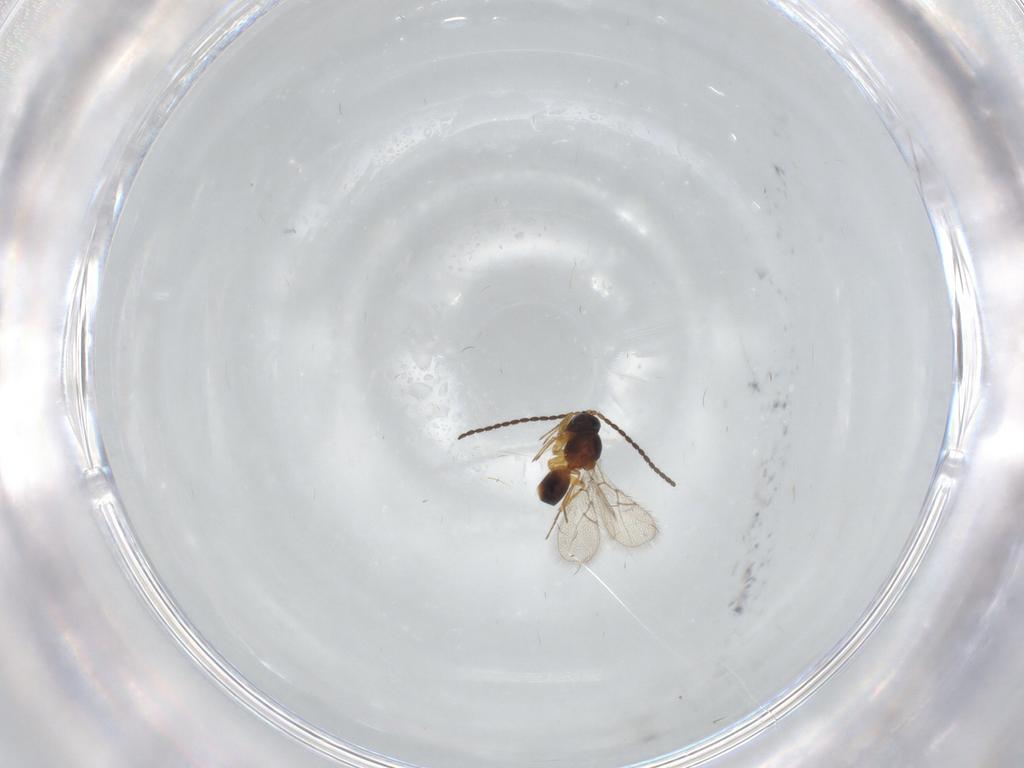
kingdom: Animalia
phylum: Arthropoda
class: Insecta
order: Hymenoptera
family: Figitidae
